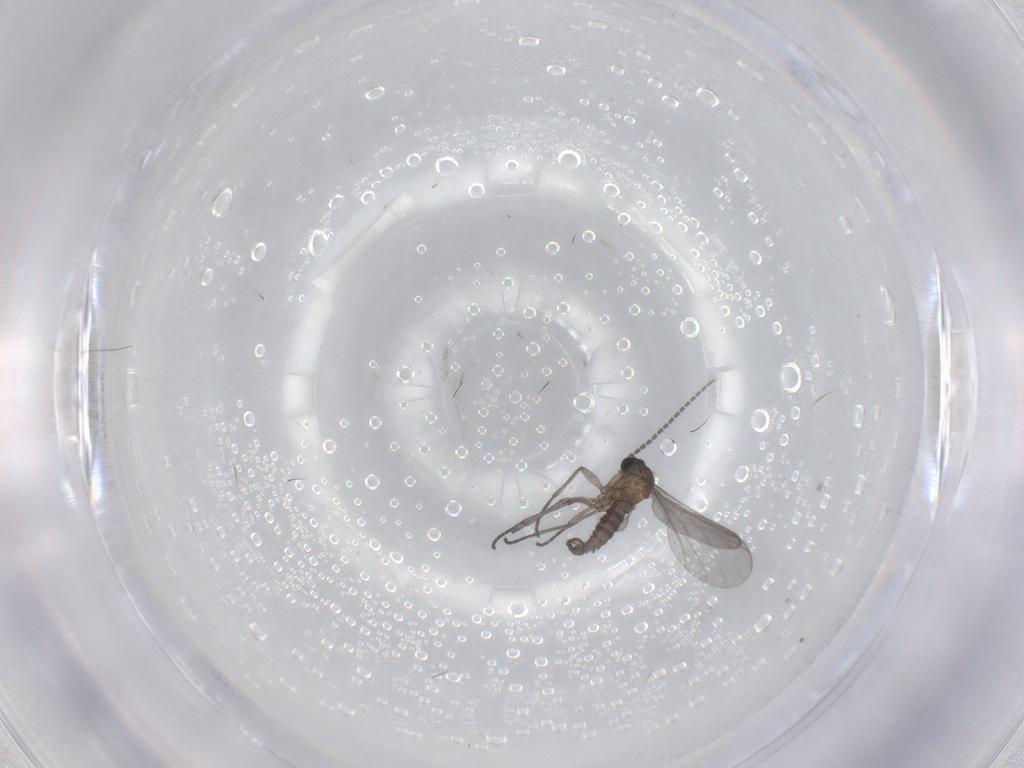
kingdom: Animalia
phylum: Arthropoda
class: Insecta
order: Diptera
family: Sciaridae
